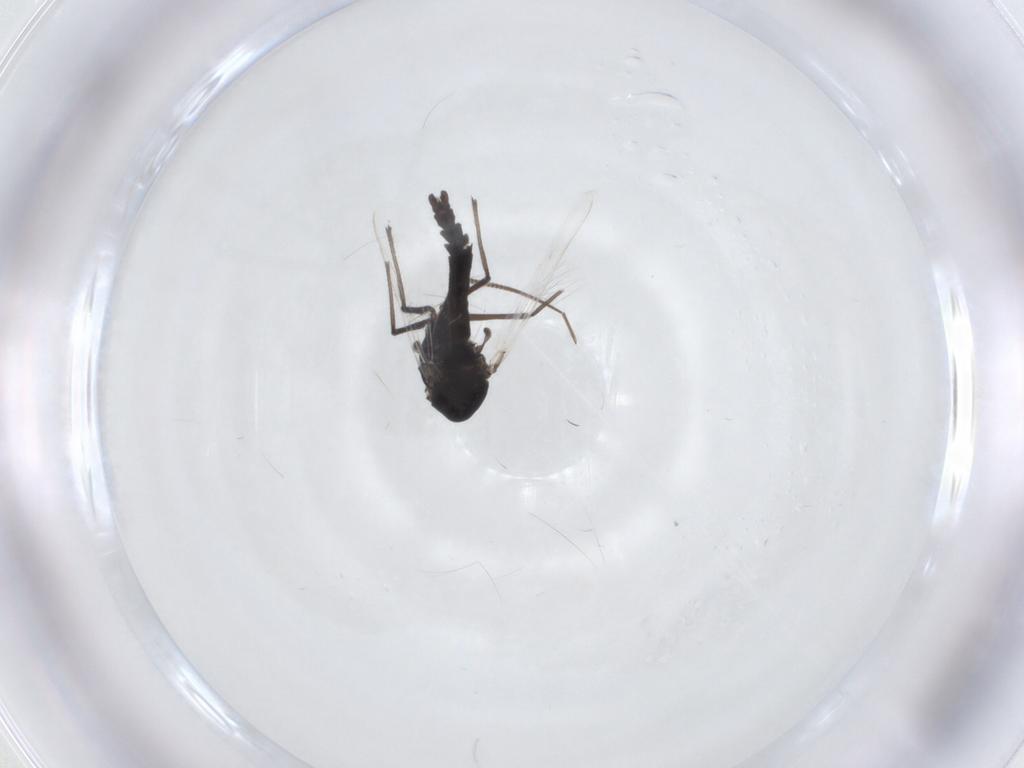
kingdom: Animalia
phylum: Arthropoda
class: Insecta
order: Diptera
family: Chironomidae
